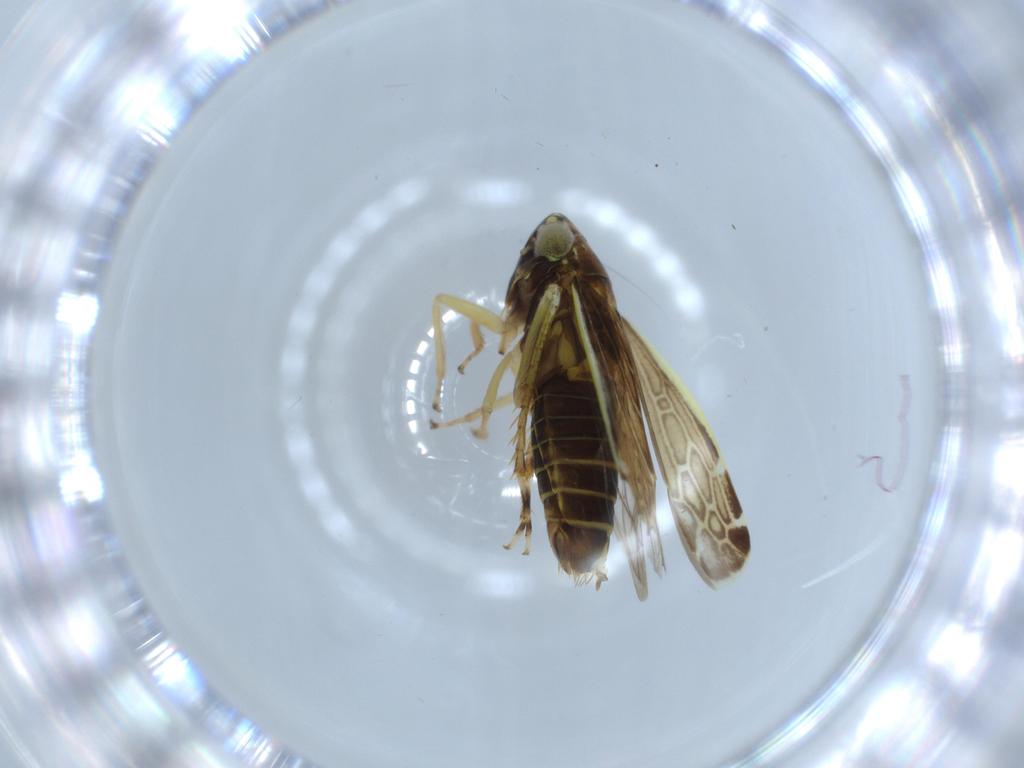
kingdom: Animalia
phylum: Arthropoda
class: Insecta
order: Hemiptera
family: Cicadellidae
